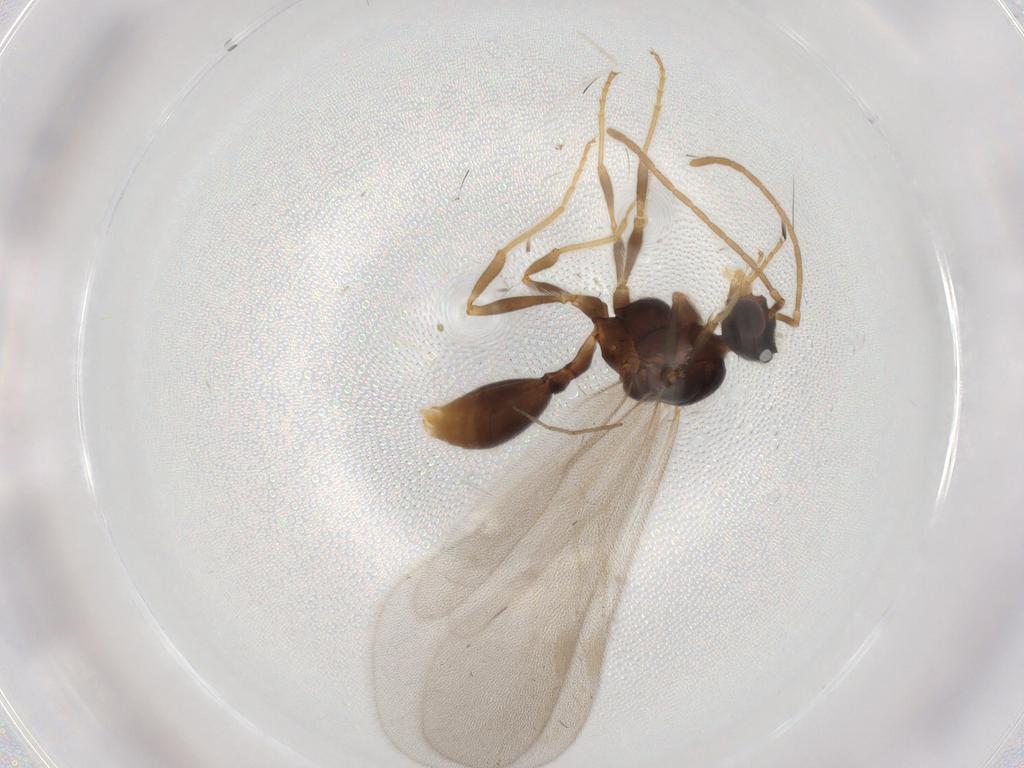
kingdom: Animalia
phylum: Arthropoda
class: Insecta
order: Hymenoptera
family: Formicidae
